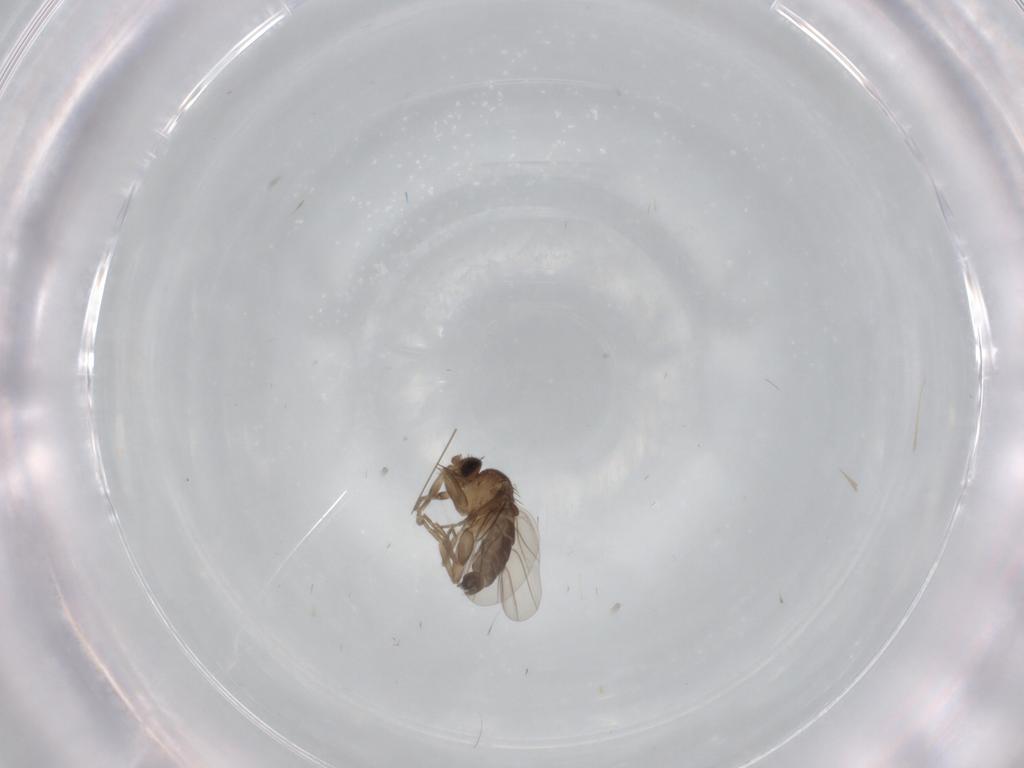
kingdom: Animalia
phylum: Arthropoda
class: Insecta
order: Diptera
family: Phoridae
